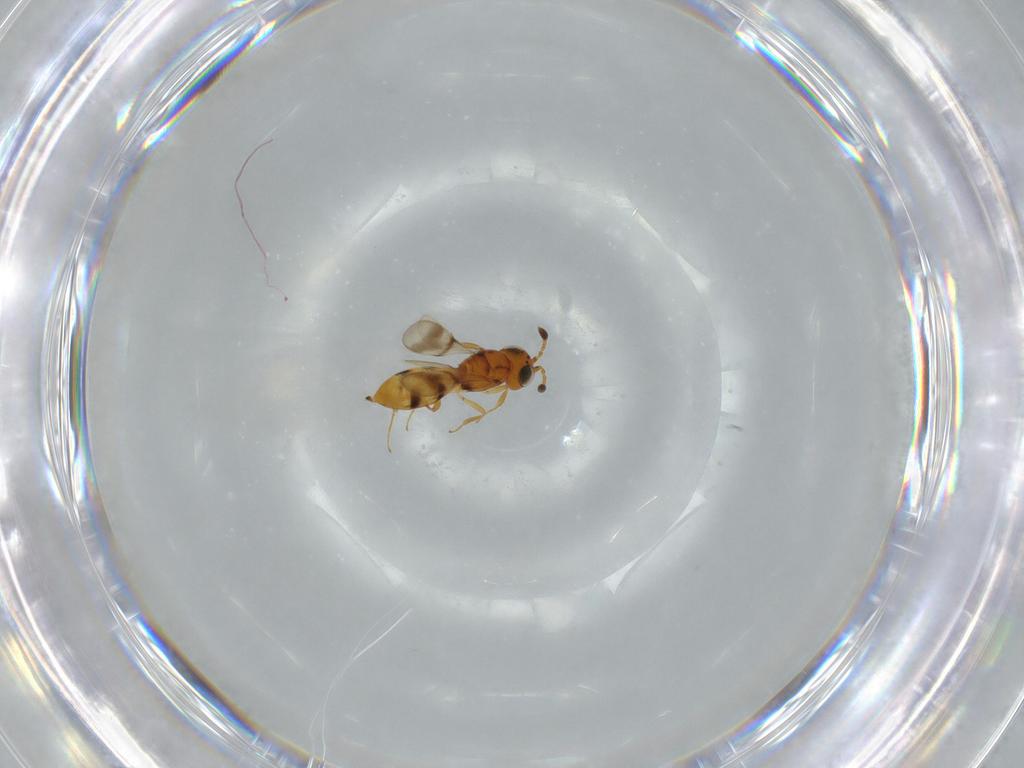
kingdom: Animalia
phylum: Arthropoda
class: Insecta
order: Hymenoptera
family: Scelionidae
